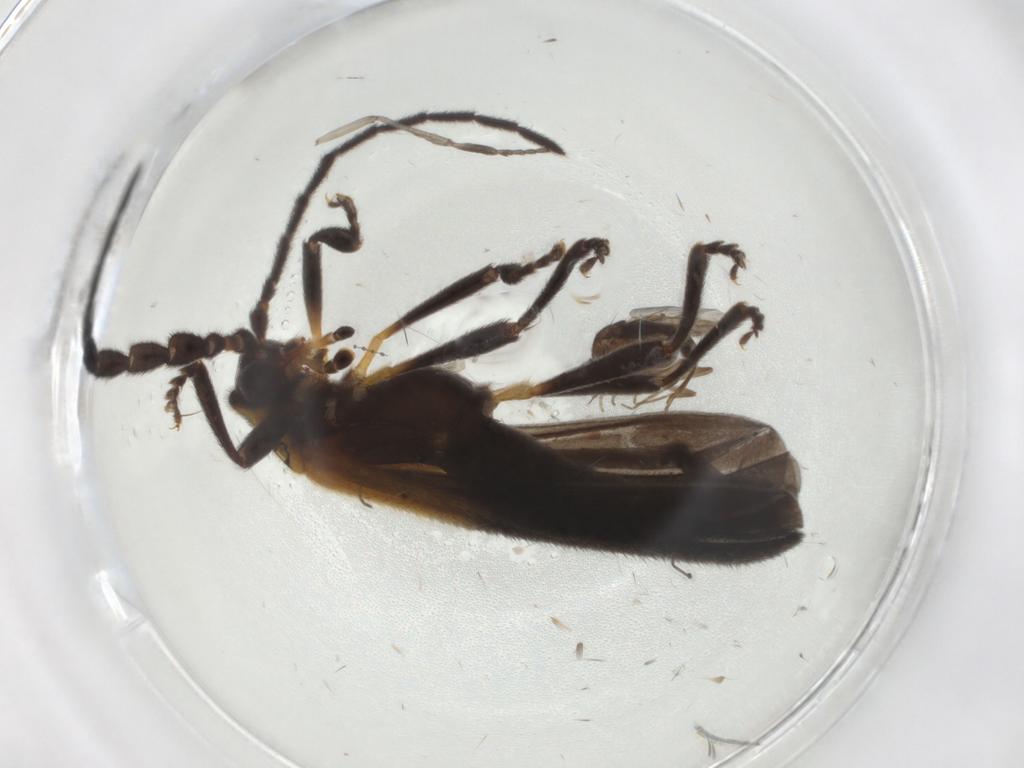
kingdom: Animalia
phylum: Arthropoda
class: Insecta
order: Diptera
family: Phoridae
